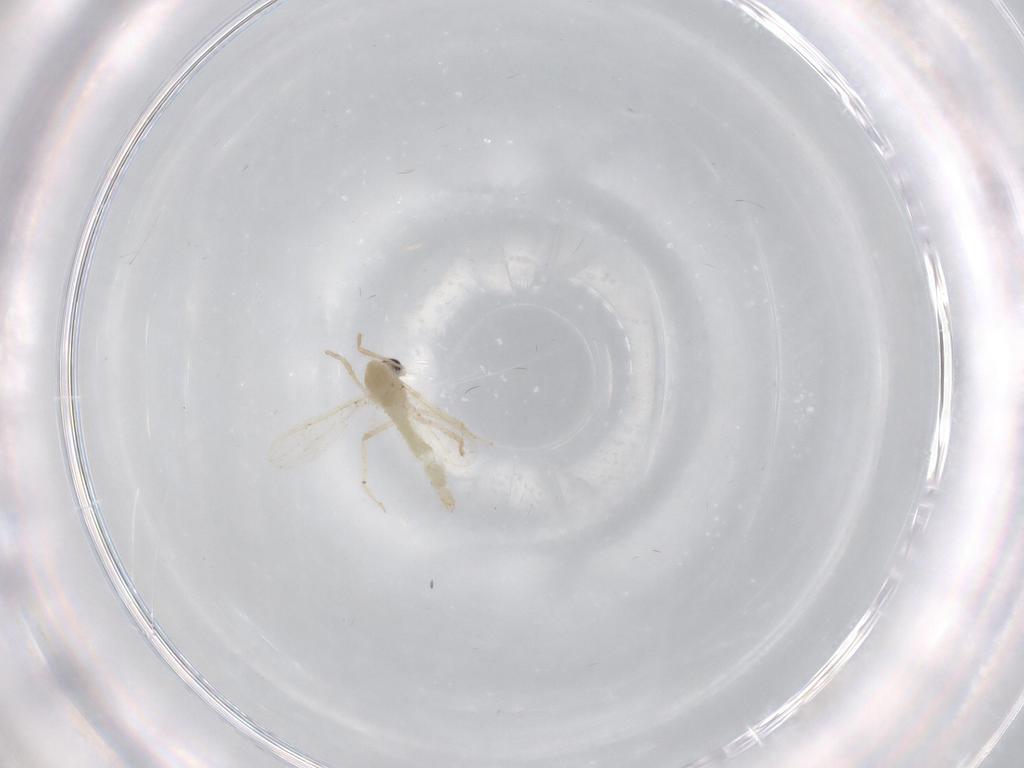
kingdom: Animalia
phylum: Arthropoda
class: Insecta
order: Diptera
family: Chironomidae
